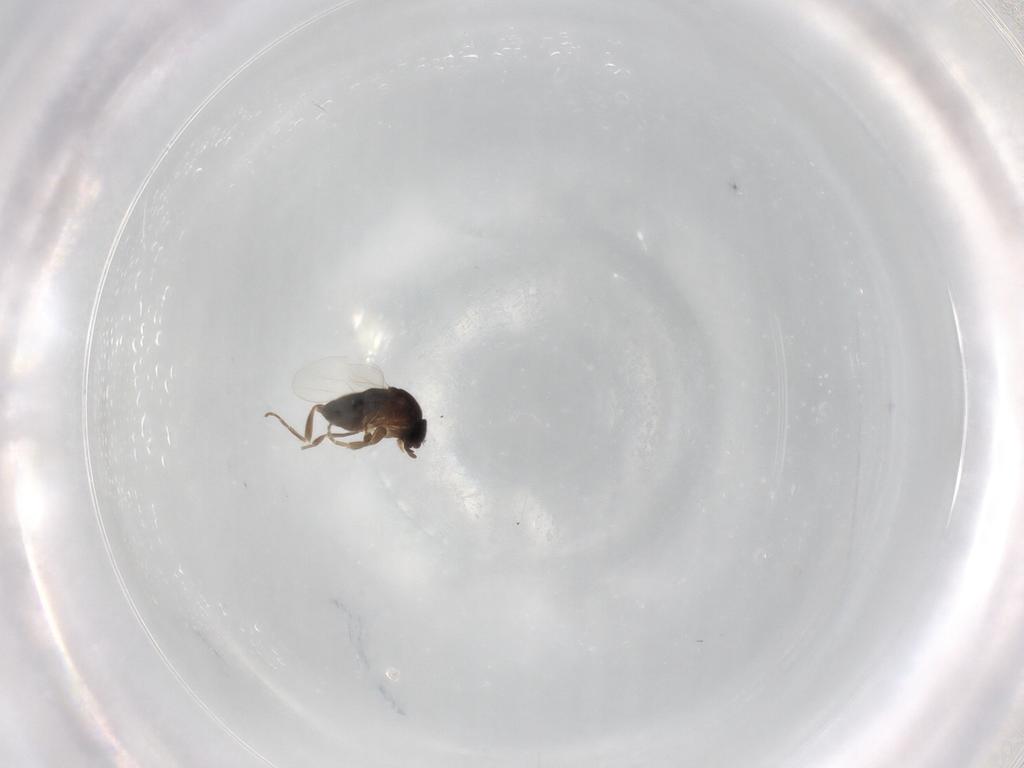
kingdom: Animalia
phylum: Arthropoda
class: Insecta
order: Diptera
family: Phoridae
